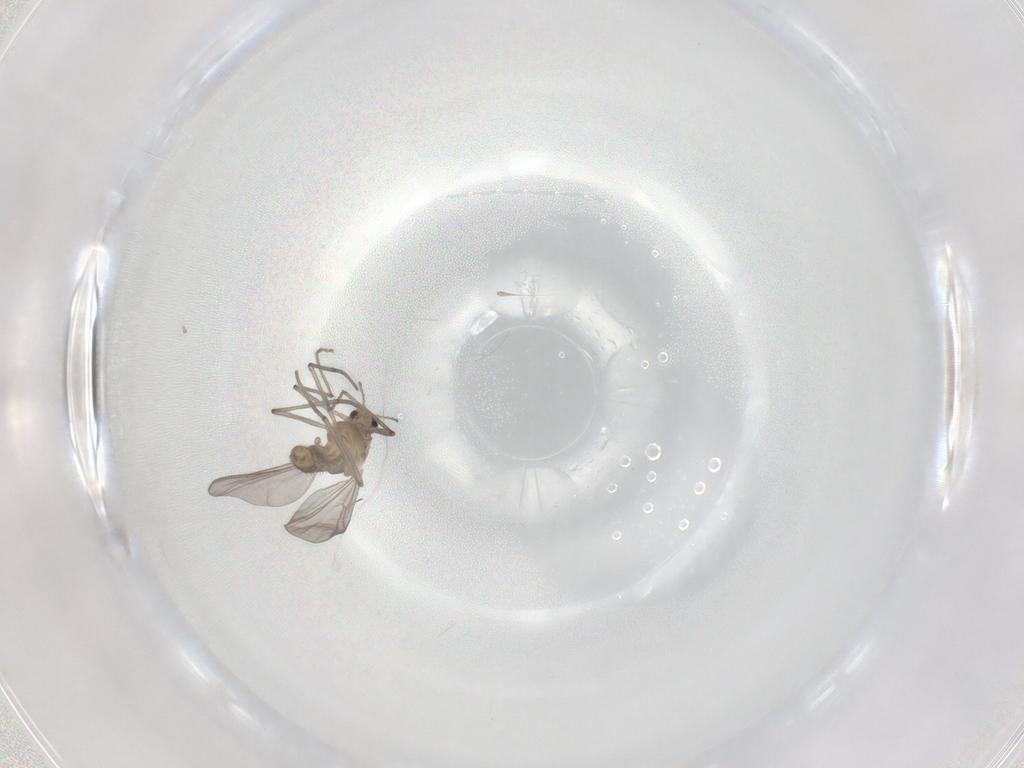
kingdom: Animalia
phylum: Arthropoda
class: Insecta
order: Diptera
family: Chironomidae
